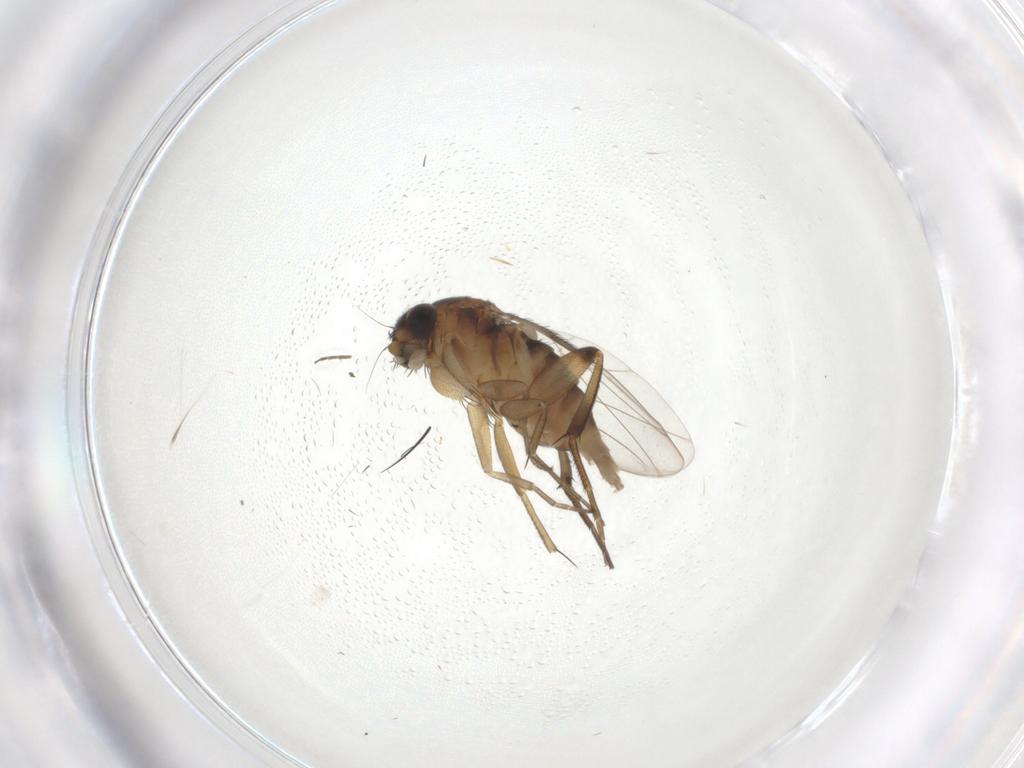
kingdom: Animalia
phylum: Arthropoda
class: Insecta
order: Diptera
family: Phoridae
